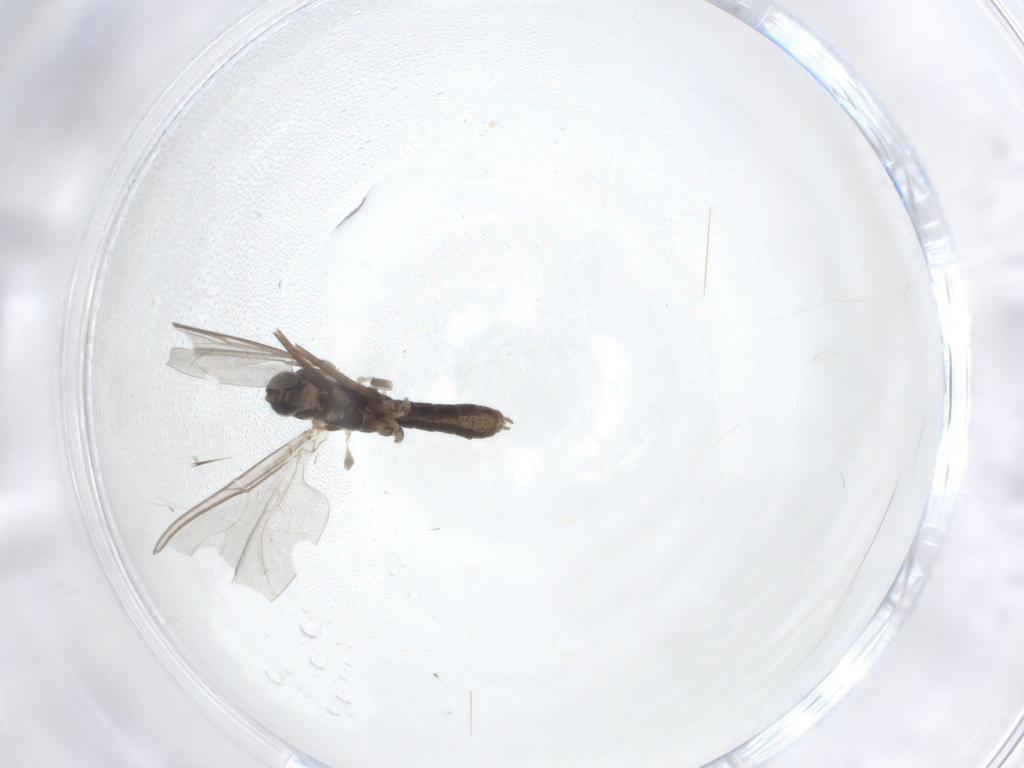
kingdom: Animalia
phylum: Arthropoda
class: Insecta
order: Diptera
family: Cecidomyiidae
